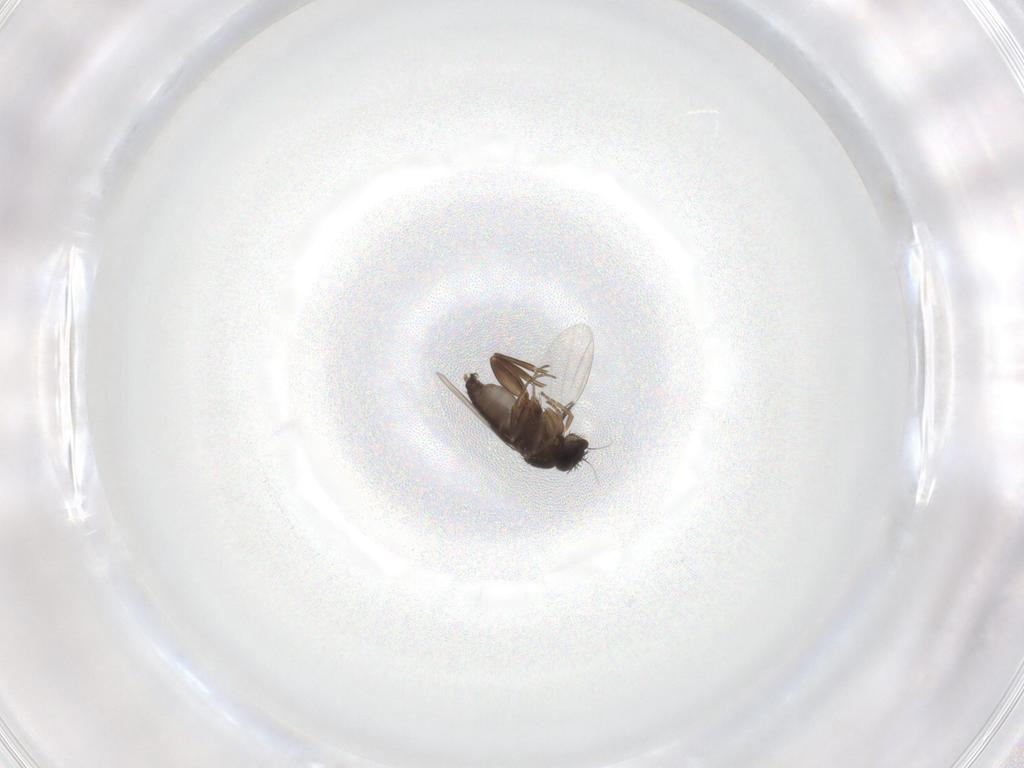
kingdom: Animalia
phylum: Arthropoda
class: Insecta
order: Diptera
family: Phoridae
